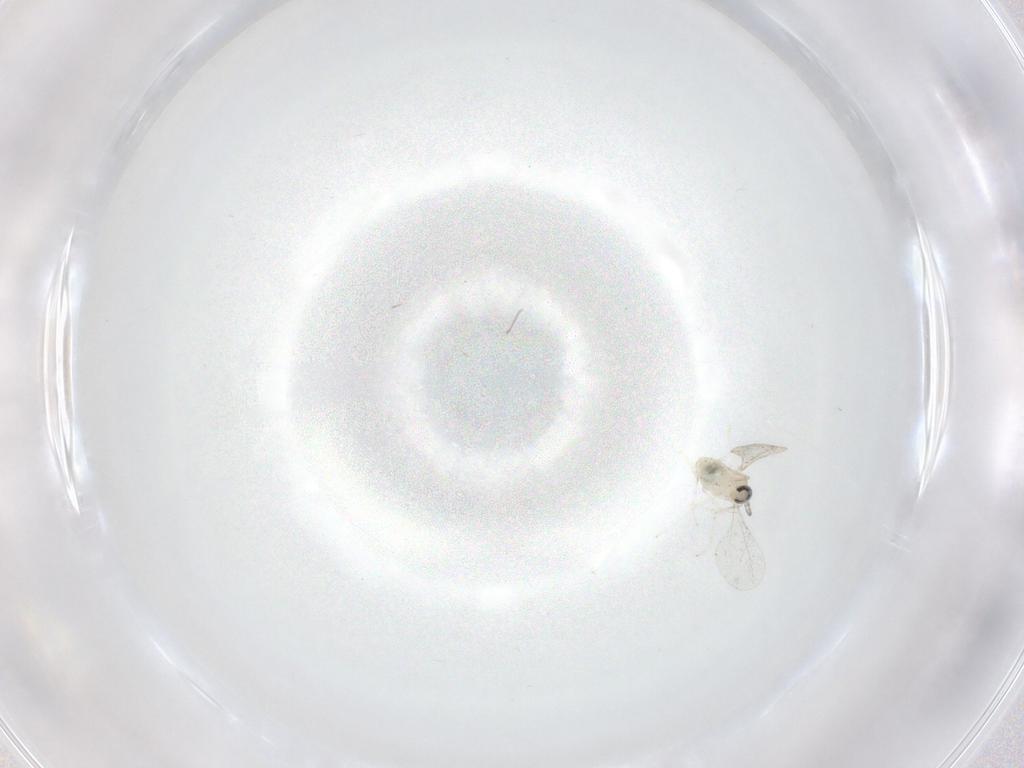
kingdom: Animalia
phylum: Arthropoda
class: Insecta
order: Diptera
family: Cecidomyiidae
